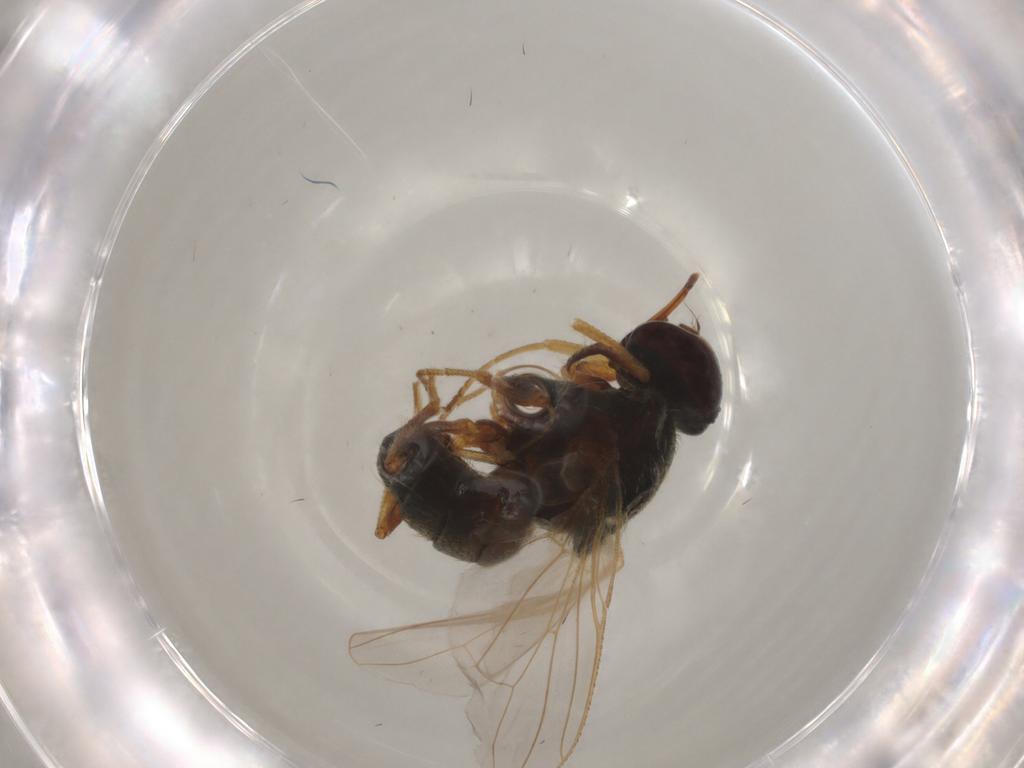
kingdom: Animalia
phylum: Arthropoda
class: Insecta
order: Diptera
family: Heleomyzidae
